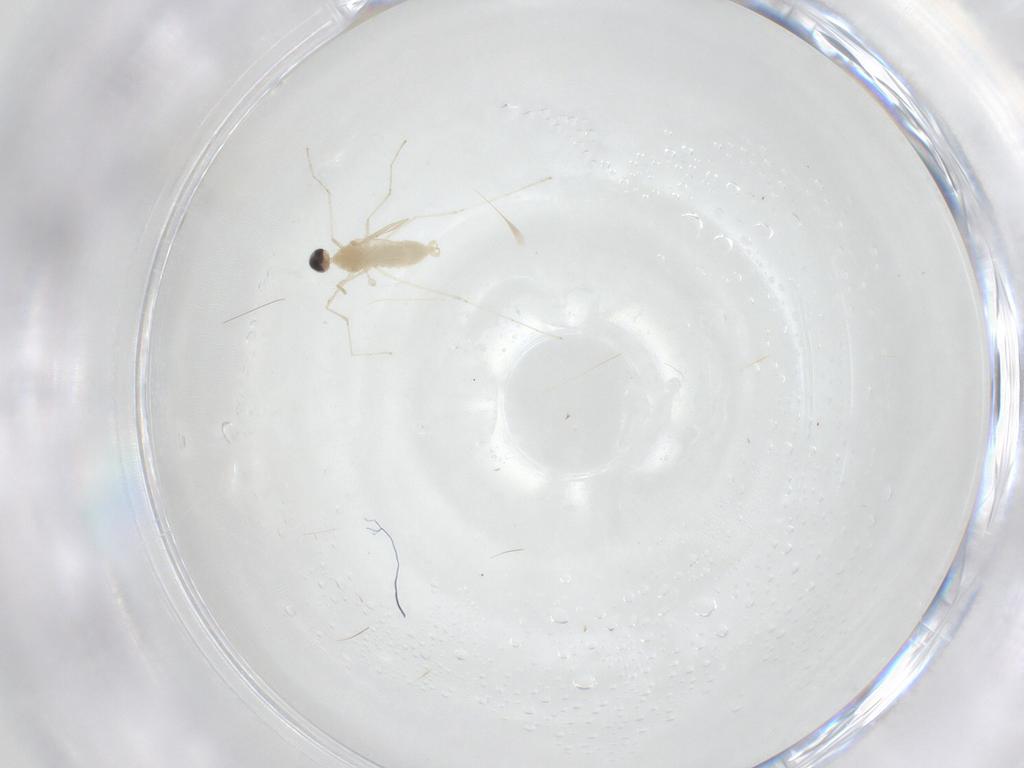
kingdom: Animalia
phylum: Arthropoda
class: Insecta
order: Diptera
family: Cecidomyiidae
